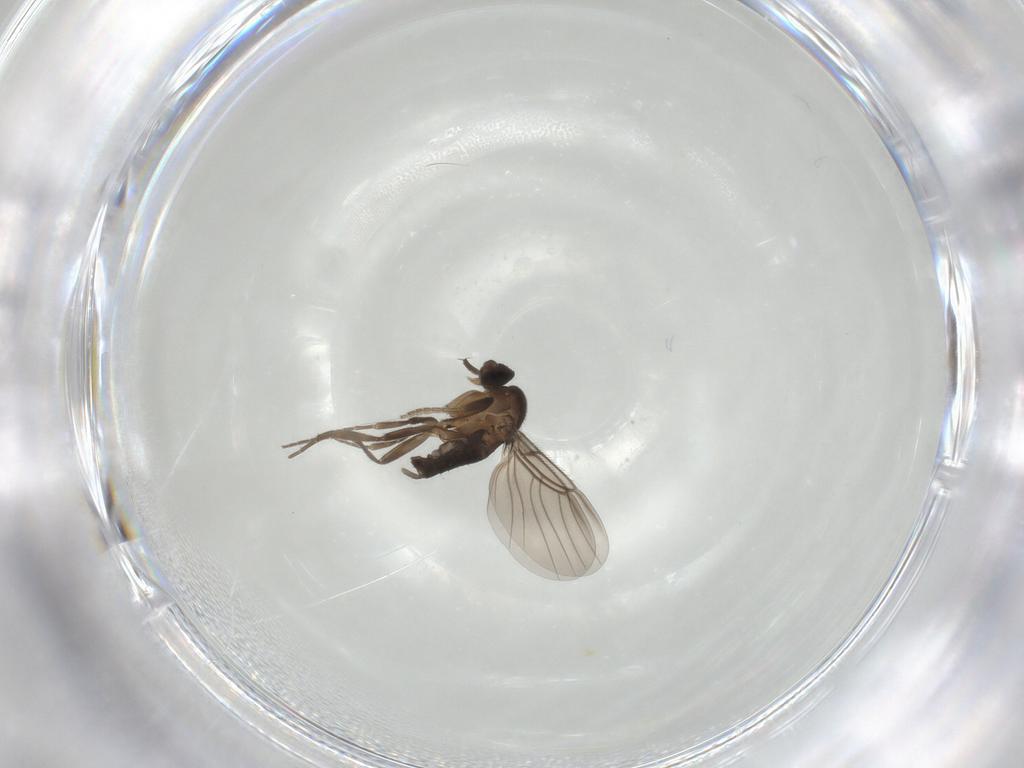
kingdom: Animalia
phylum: Arthropoda
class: Insecta
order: Diptera
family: Phoridae
